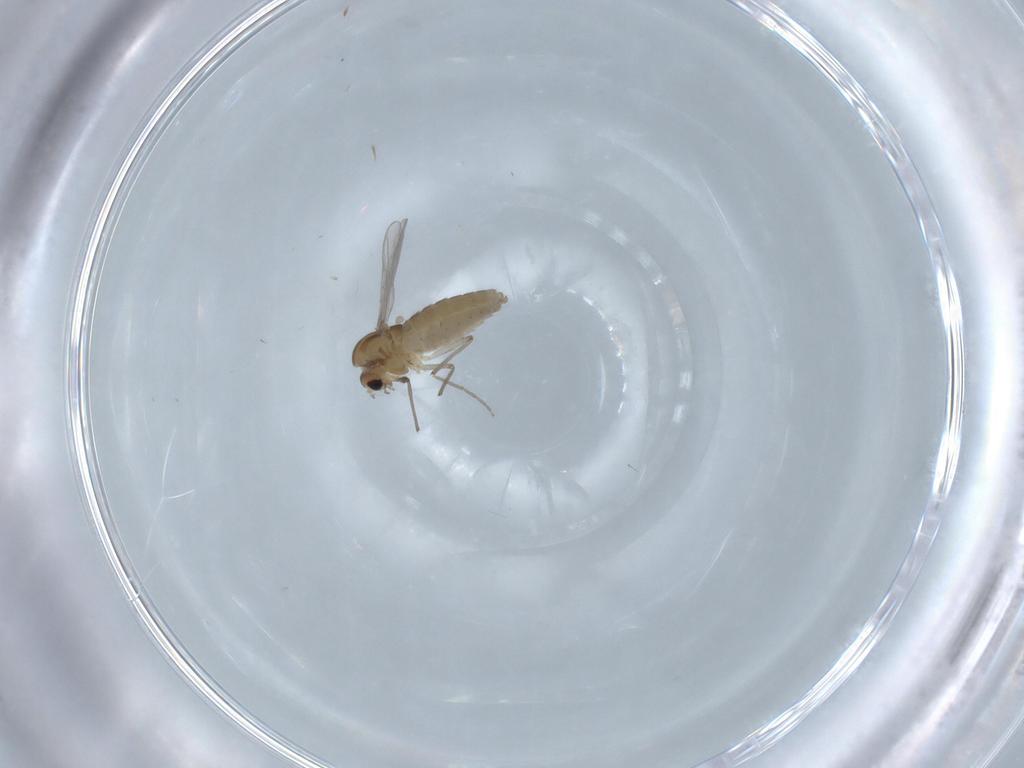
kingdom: Animalia
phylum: Arthropoda
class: Insecta
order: Diptera
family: Chironomidae
